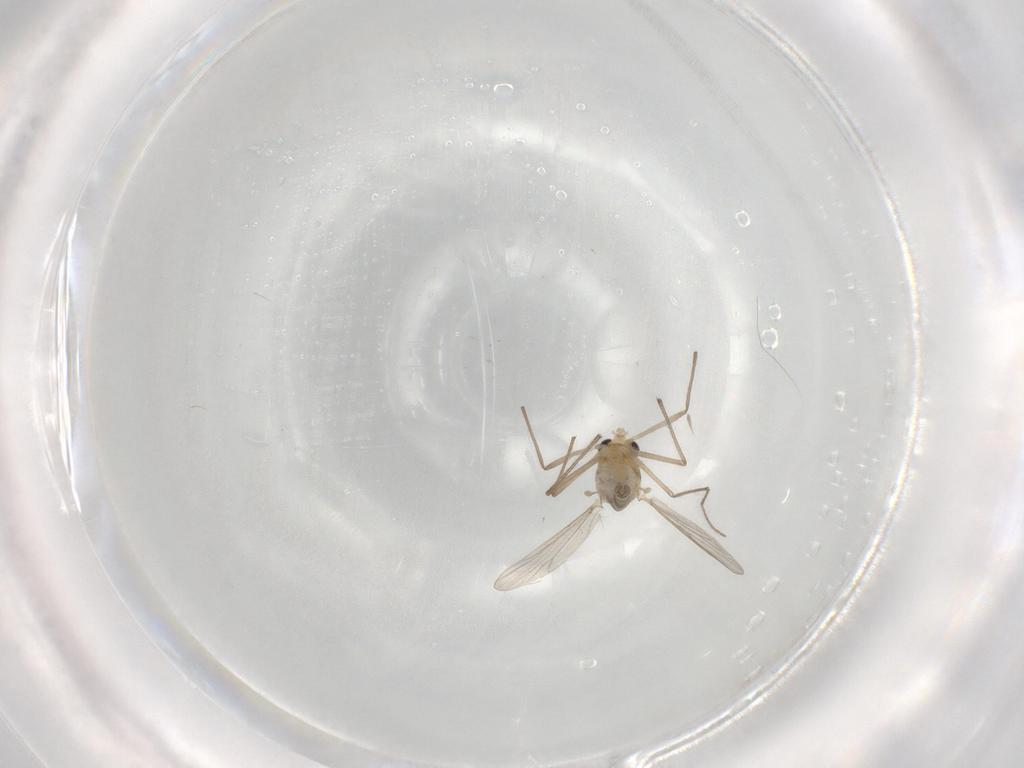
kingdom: Animalia
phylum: Arthropoda
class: Insecta
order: Diptera
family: Chironomidae
